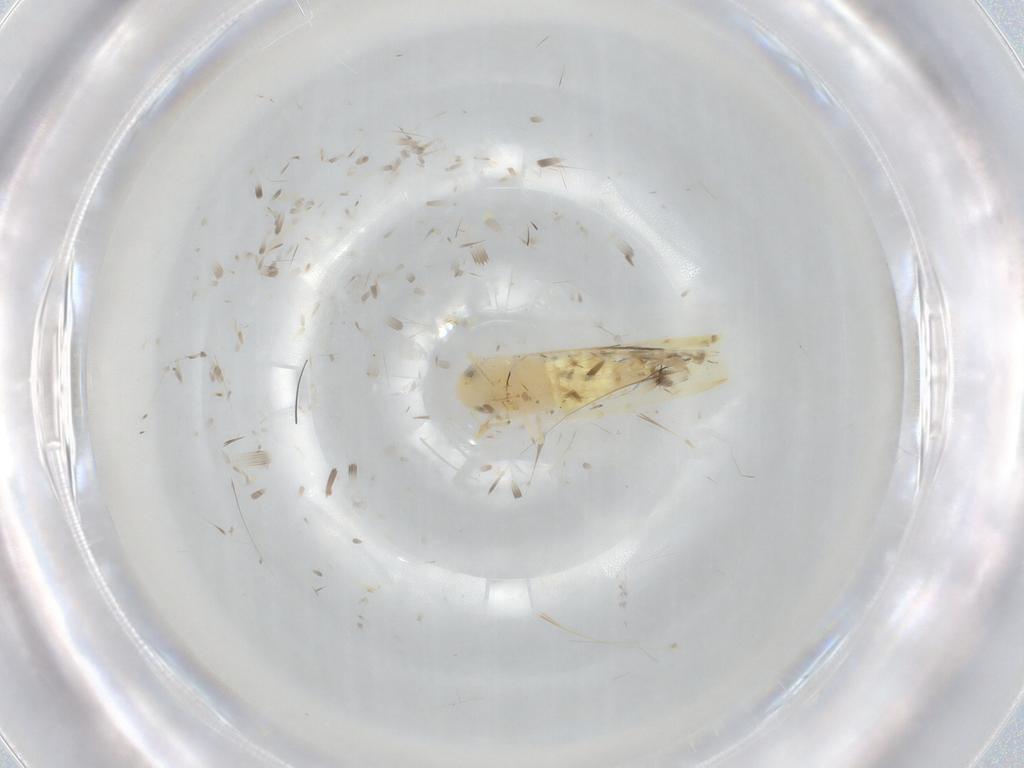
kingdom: Animalia
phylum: Arthropoda
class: Insecta
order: Hemiptera
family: Cicadellidae
